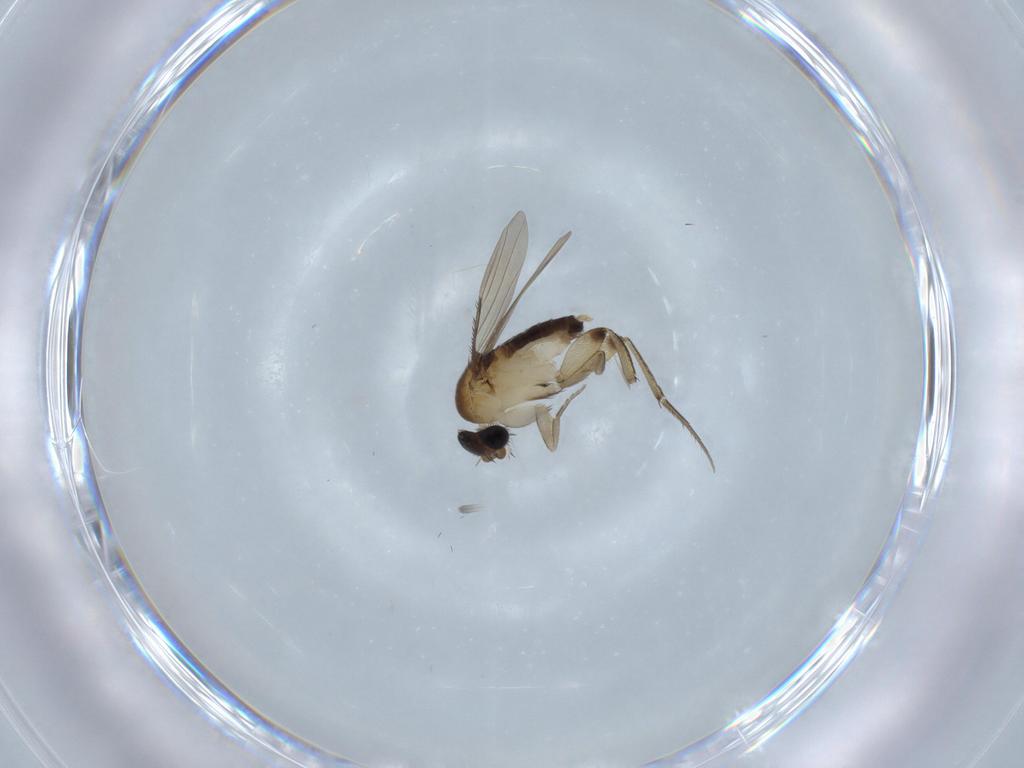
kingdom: Animalia
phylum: Arthropoda
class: Insecta
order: Diptera
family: Phoridae
